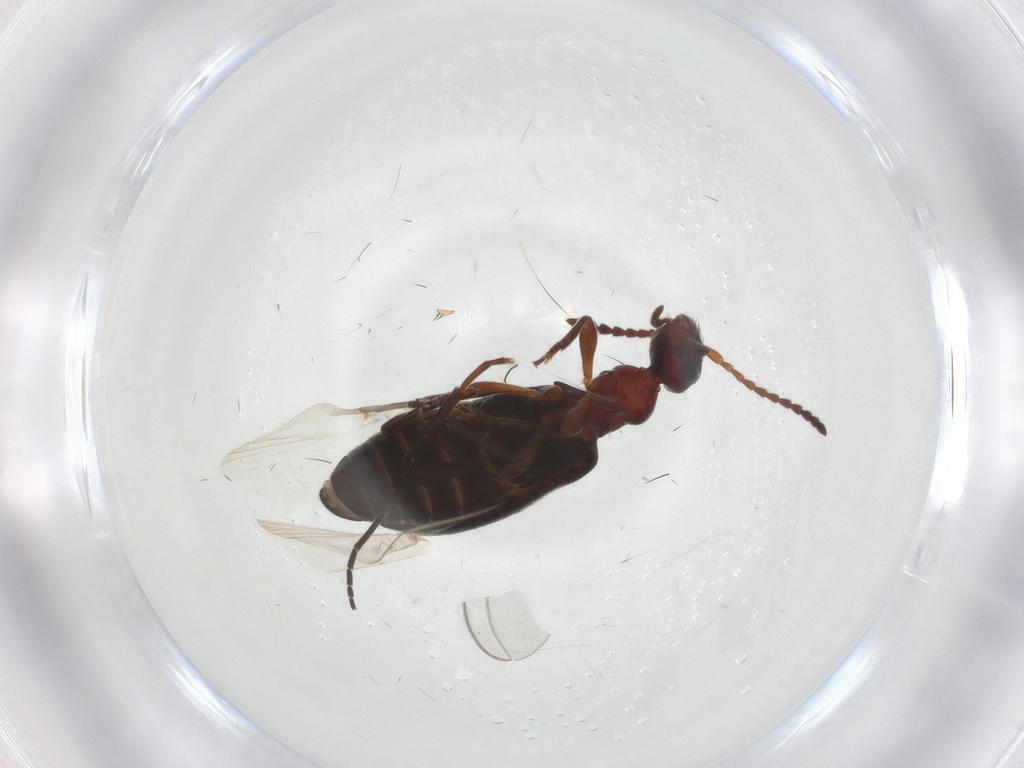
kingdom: Animalia
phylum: Arthropoda
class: Insecta
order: Coleoptera
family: Anthicidae
